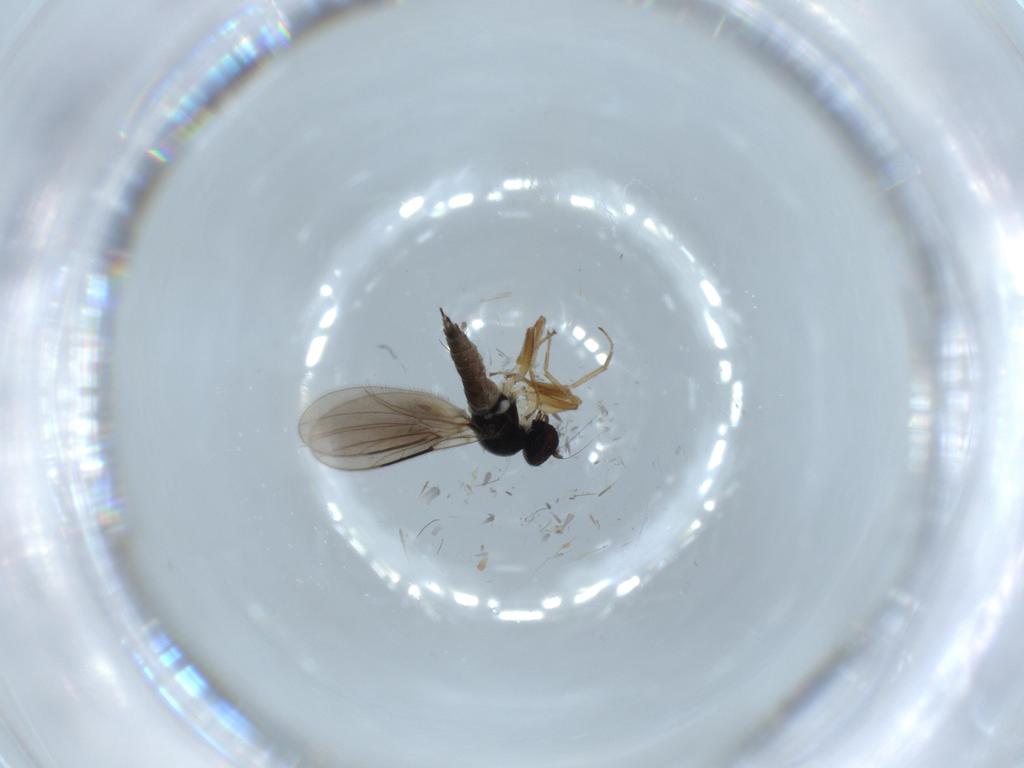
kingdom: Animalia
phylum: Arthropoda
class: Insecta
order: Diptera
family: Hybotidae
